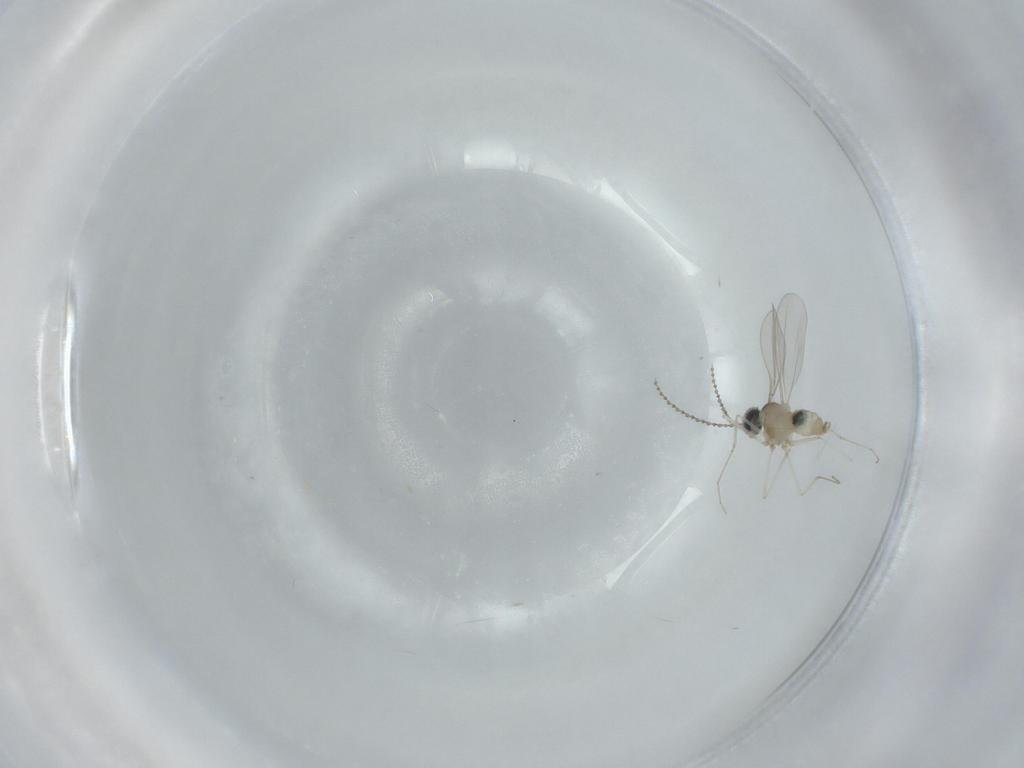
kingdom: Animalia
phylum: Arthropoda
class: Insecta
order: Diptera
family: Cecidomyiidae
